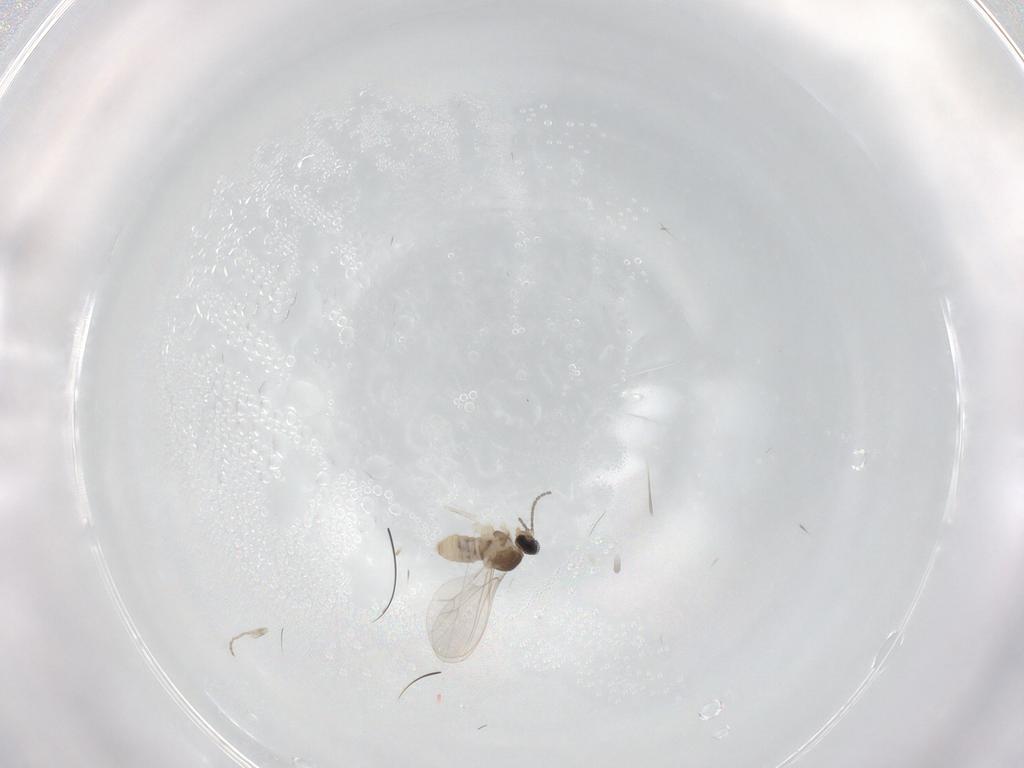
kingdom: Animalia
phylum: Arthropoda
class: Insecta
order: Diptera
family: Cecidomyiidae
